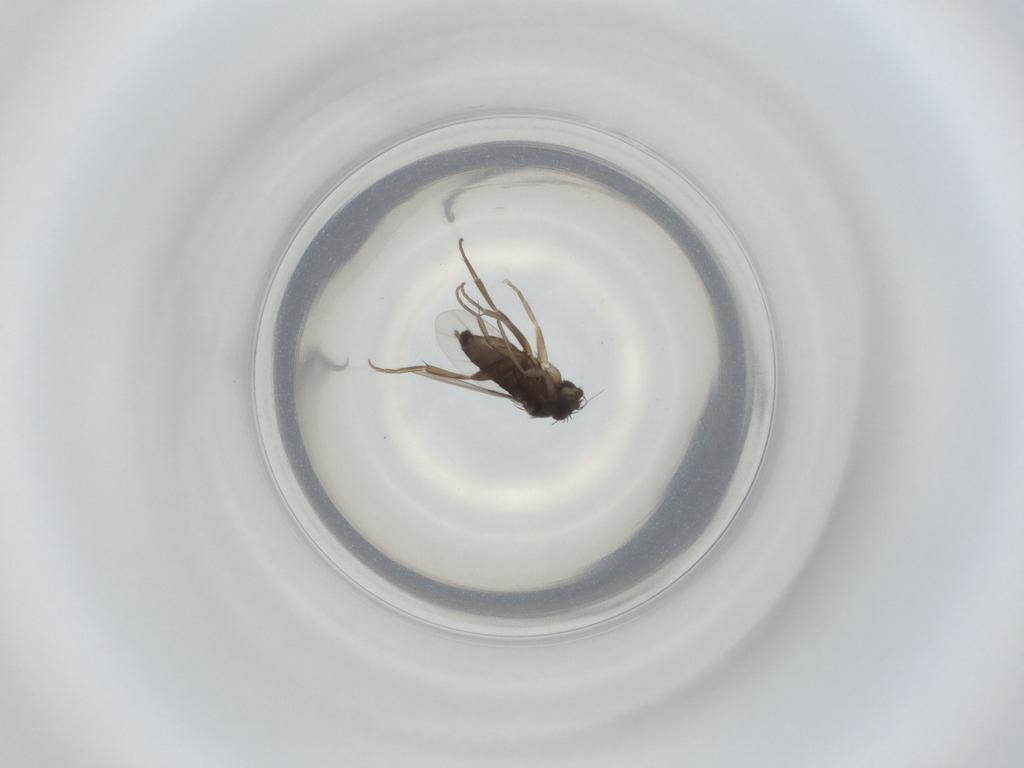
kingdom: Animalia
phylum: Arthropoda
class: Insecta
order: Diptera
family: Phoridae
